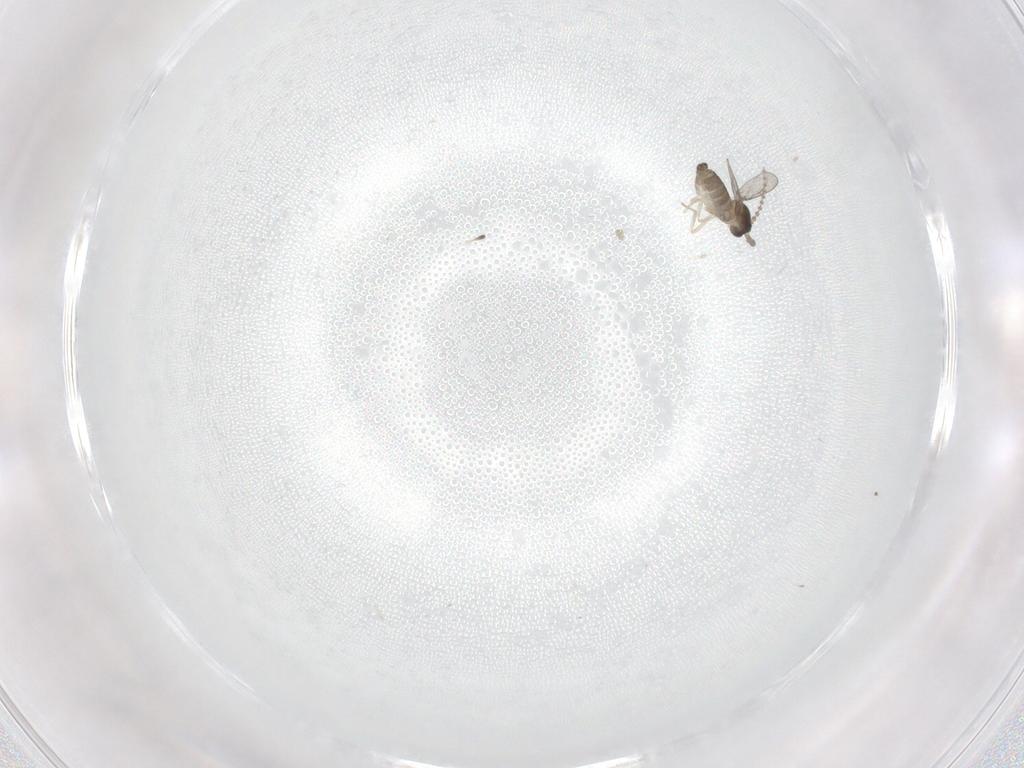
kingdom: Animalia
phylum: Arthropoda
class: Insecta
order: Diptera
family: Cecidomyiidae
